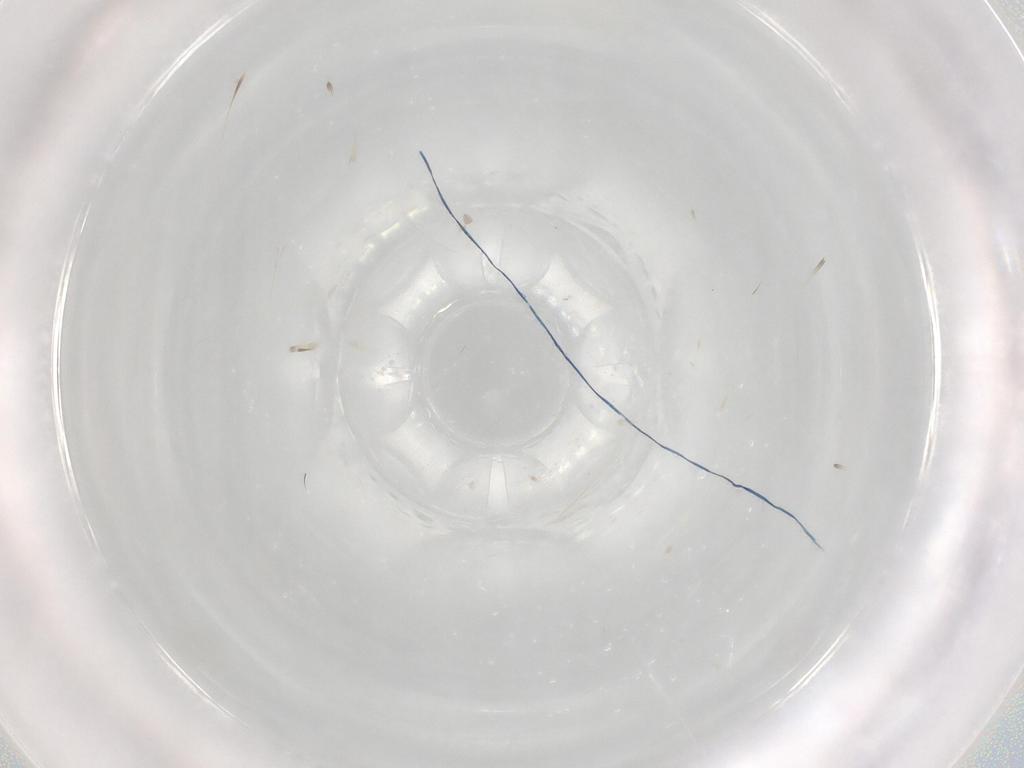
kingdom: Animalia
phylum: Arthropoda
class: Insecta
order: Diptera
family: Chironomidae
